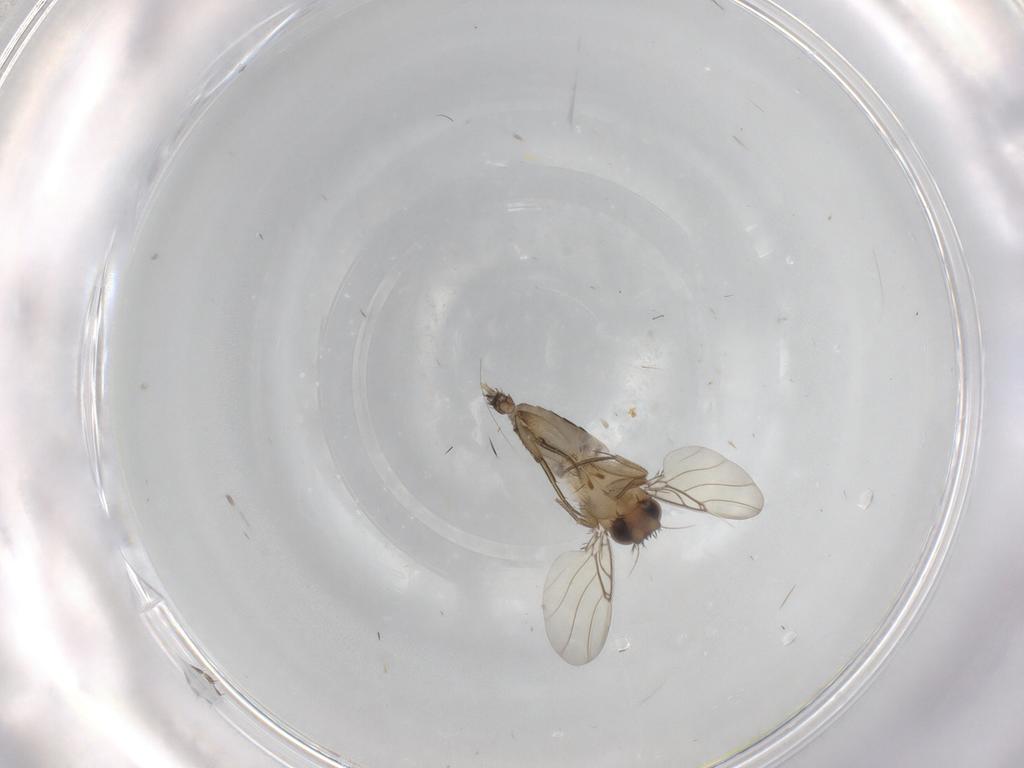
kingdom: Animalia
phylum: Arthropoda
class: Insecta
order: Diptera
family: Phoridae
